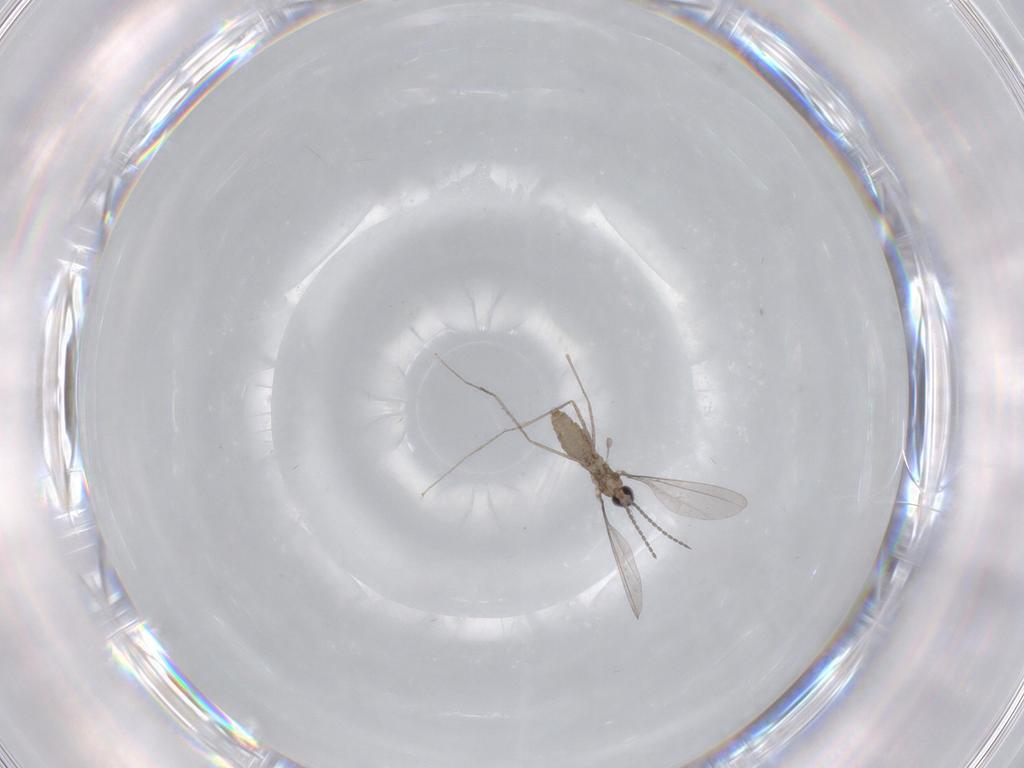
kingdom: Animalia
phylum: Arthropoda
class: Insecta
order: Diptera
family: Cecidomyiidae
